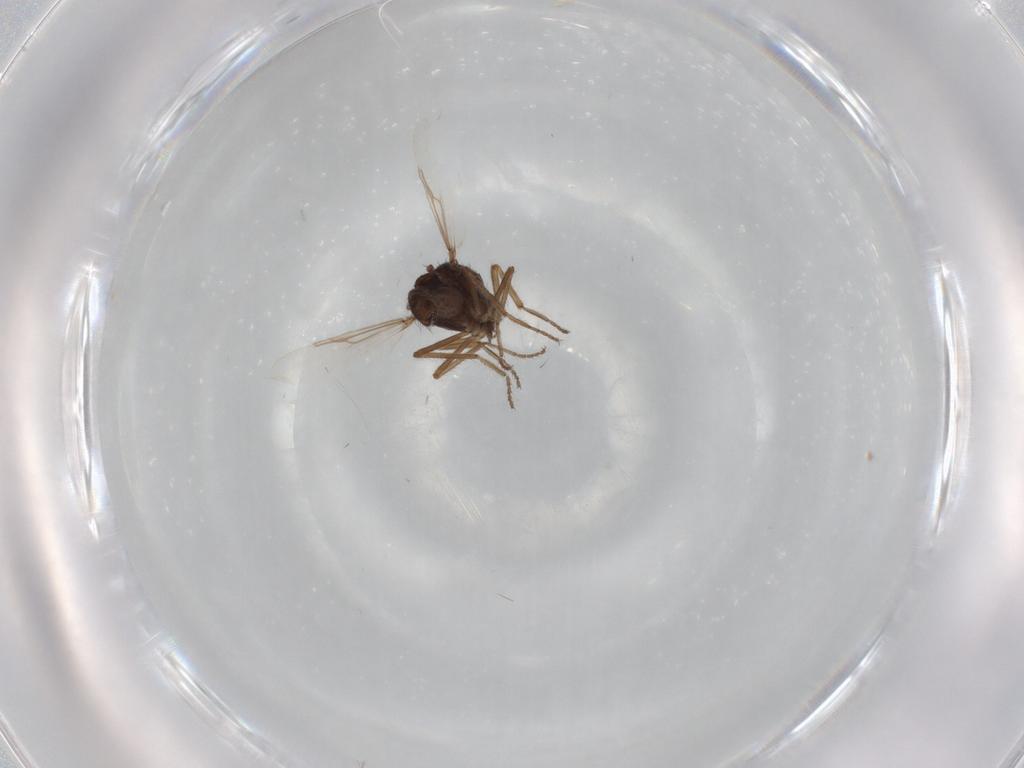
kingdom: Animalia
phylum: Arthropoda
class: Insecta
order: Diptera
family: Ceratopogonidae
